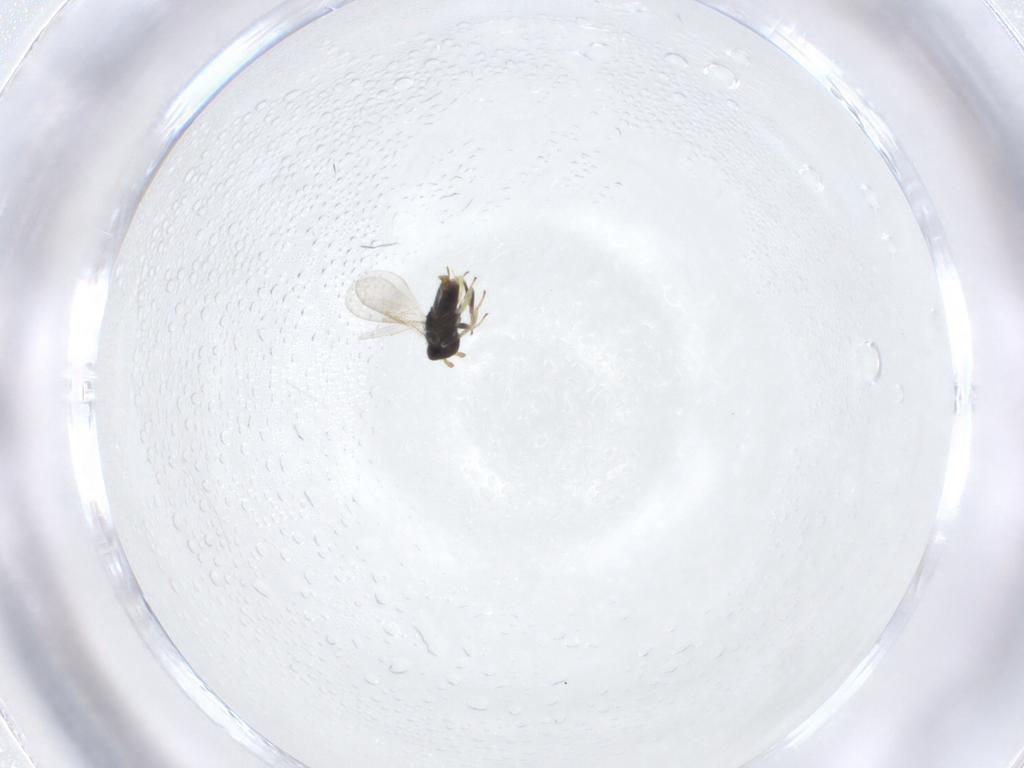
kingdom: Animalia
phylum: Arthropoda
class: Insecta
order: Hymenoptera
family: Aphelinidae
